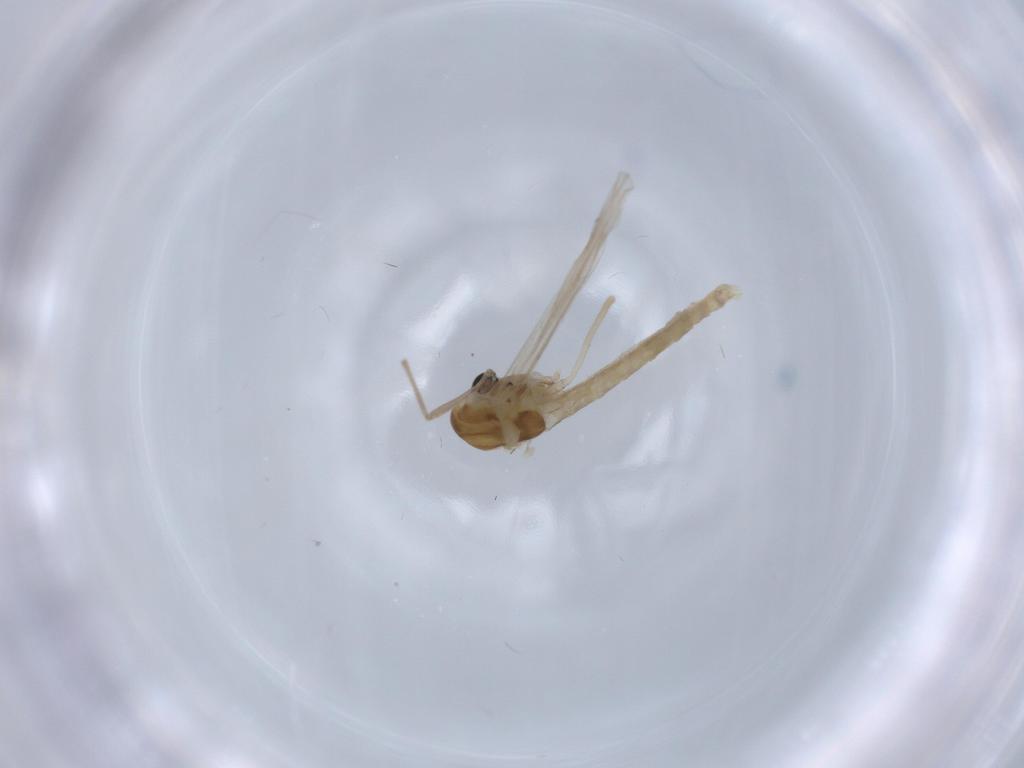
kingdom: Animalia
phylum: Arthropoda
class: Insecta
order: Diptera
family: Chironomidae
